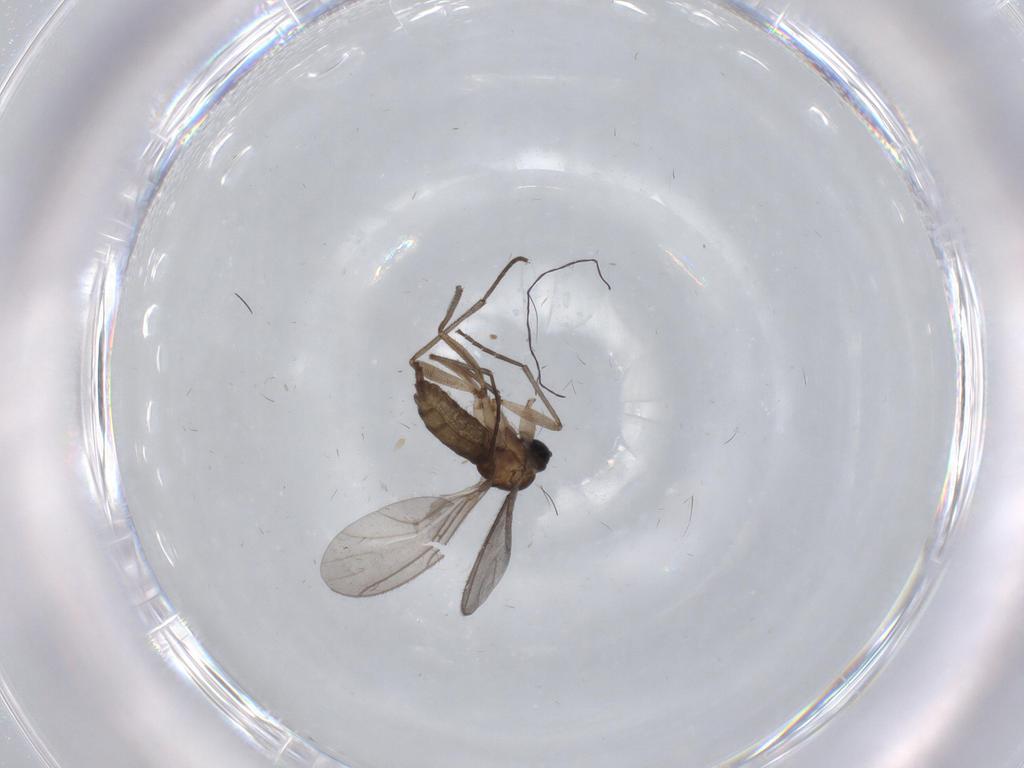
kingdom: Animalia
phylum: Arthropoda
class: Insecta
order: Diptera
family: Sciaridae
